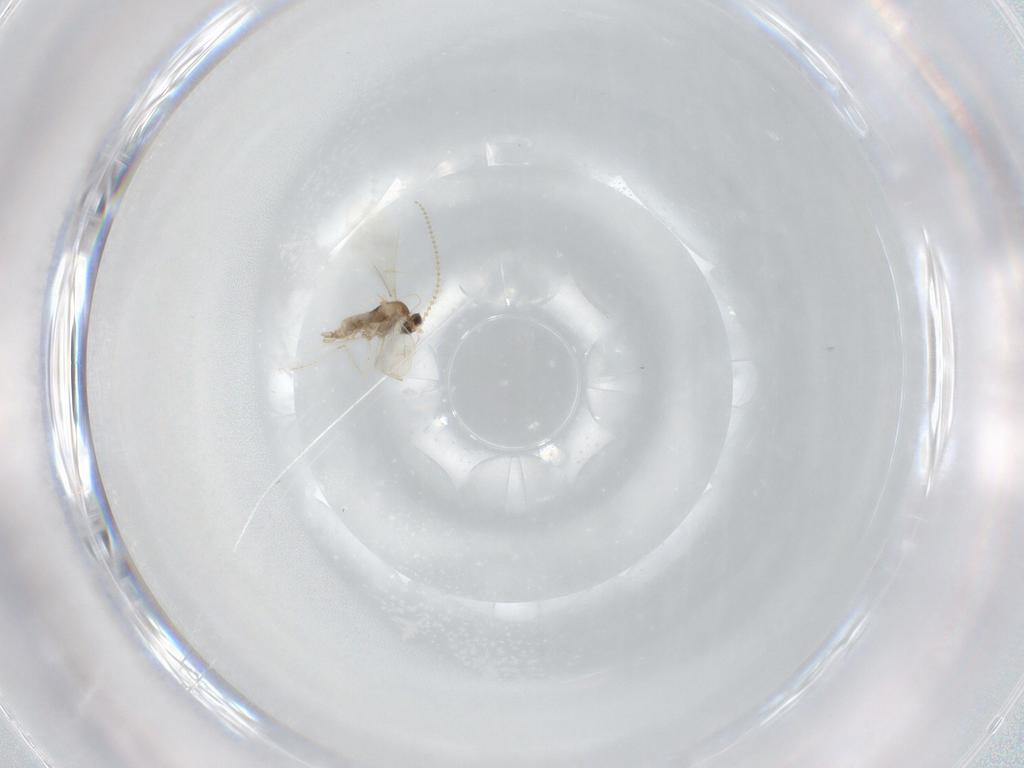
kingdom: Animalia
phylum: Arthropoda
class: Insecta
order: Diptera
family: Cecidomyiidae
